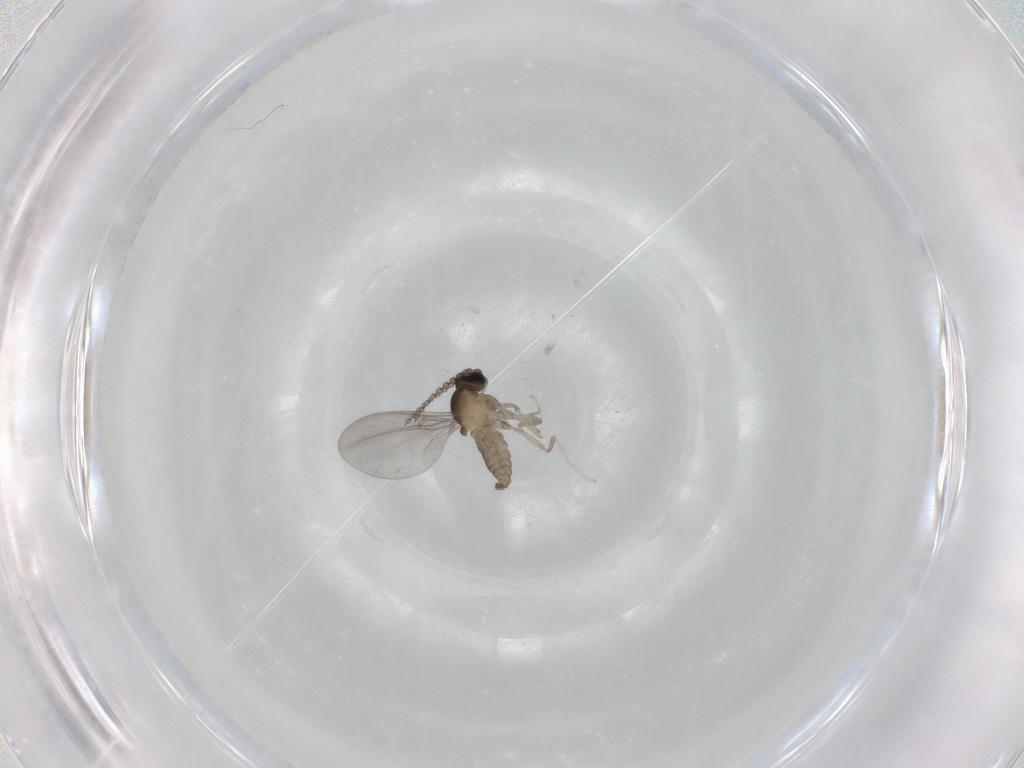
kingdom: Animalia
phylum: Arthropoda
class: Insecta
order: Diptera
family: Cecidomyiidae
